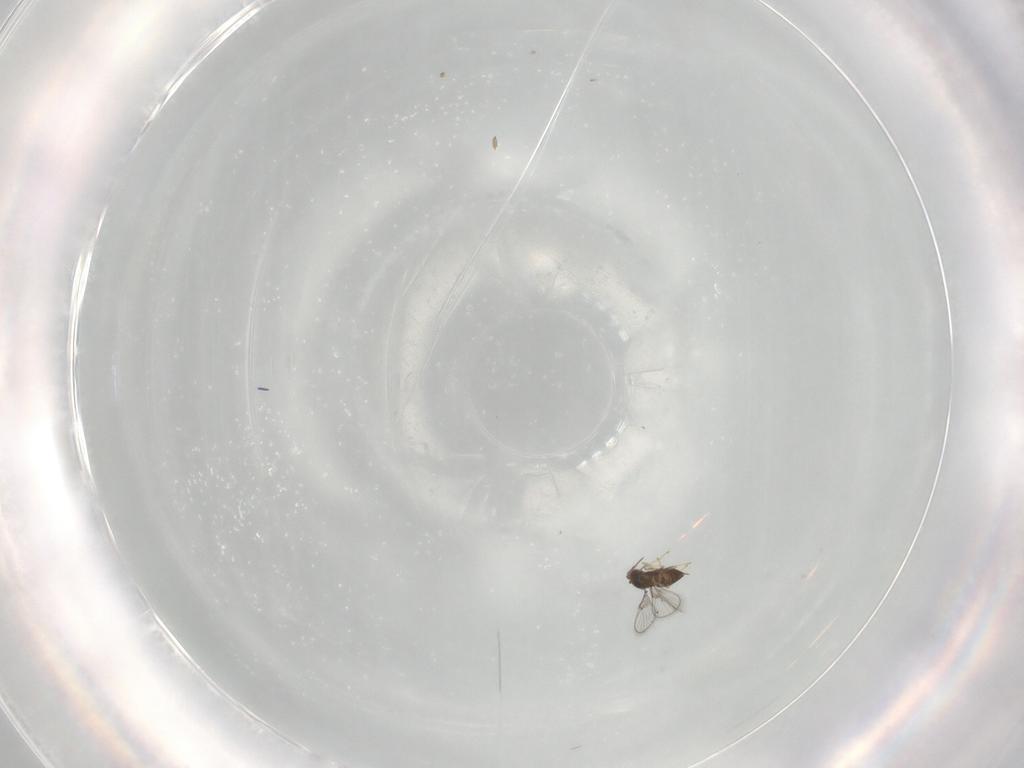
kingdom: Animalia
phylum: Arthropoda
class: Insecta
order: Hymenoptera
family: Trichogrammatidae
